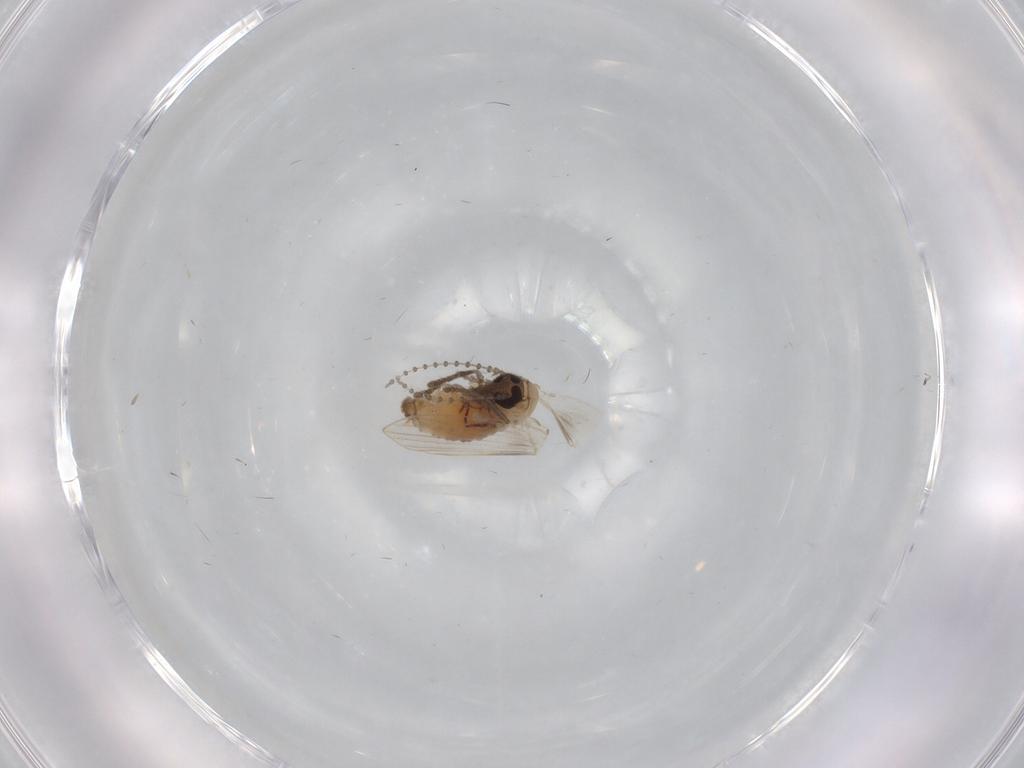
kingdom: Animalia
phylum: Arthropoda
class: Insecta
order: Diptera
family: Psychodidae
